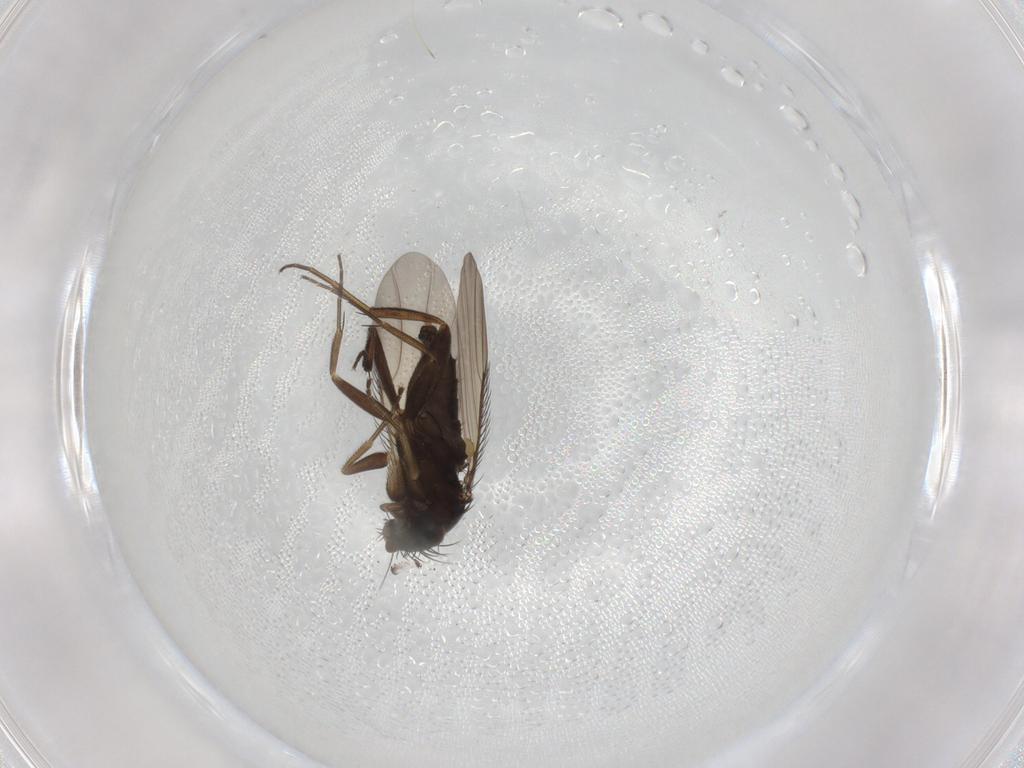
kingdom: Animalia
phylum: Arthropoda
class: Insecta
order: Diptera
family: Phoridae
